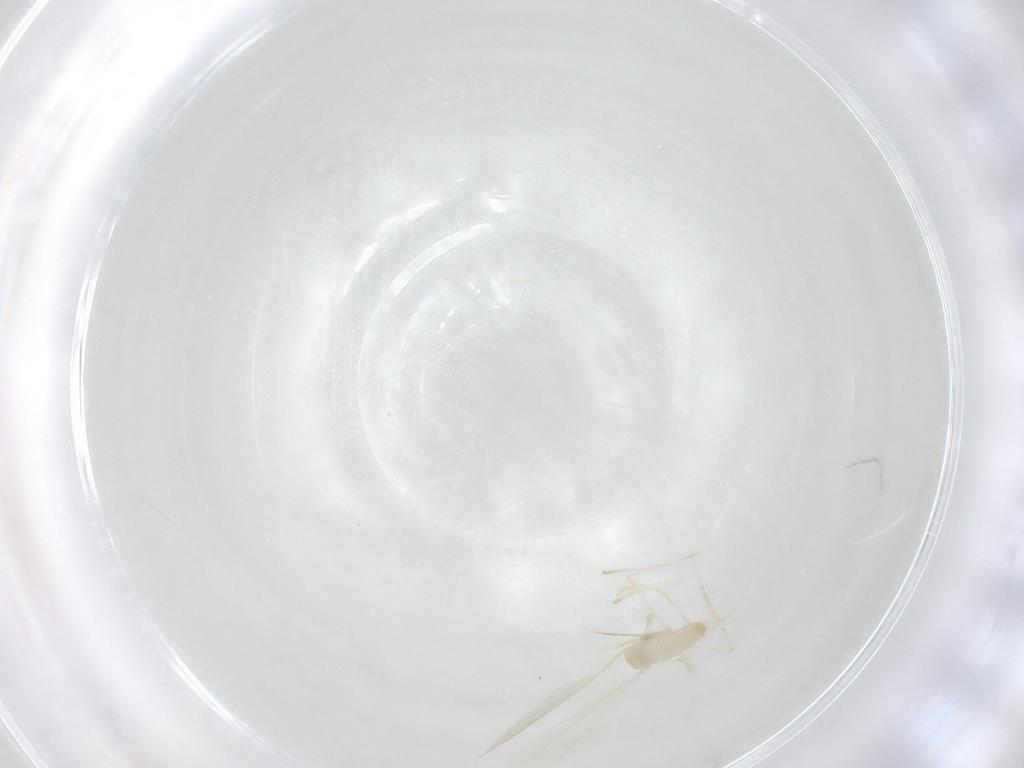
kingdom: Animalia
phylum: Arthropoda
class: Insecta
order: Diptera
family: Cecidomyiidae
